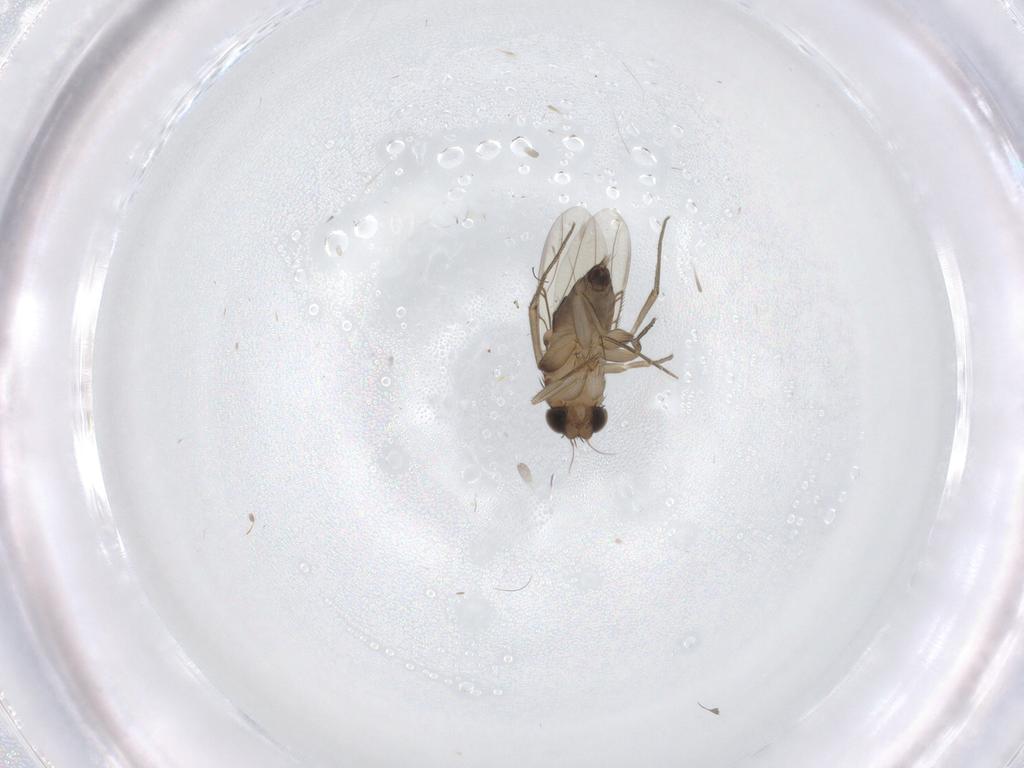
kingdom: Animalia
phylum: Arthropoda
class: Insecta
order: Diptera
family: Phoridae
